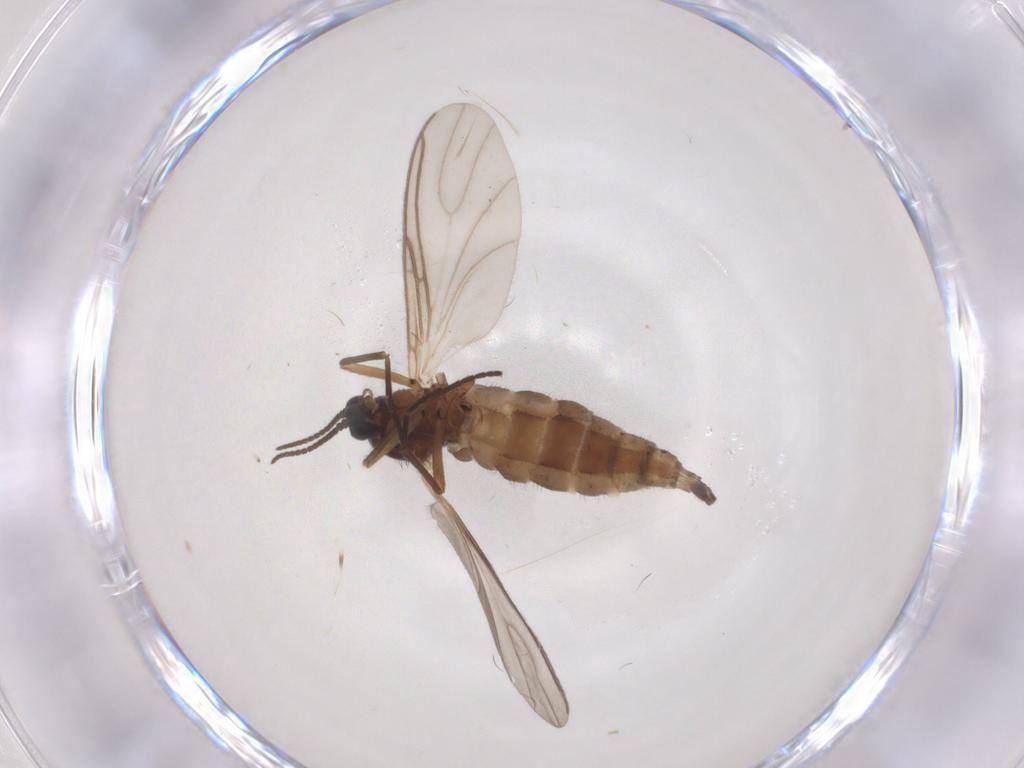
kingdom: Animalia
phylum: Arthropoda
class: Insecta
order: Diptera
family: Sciaridae
